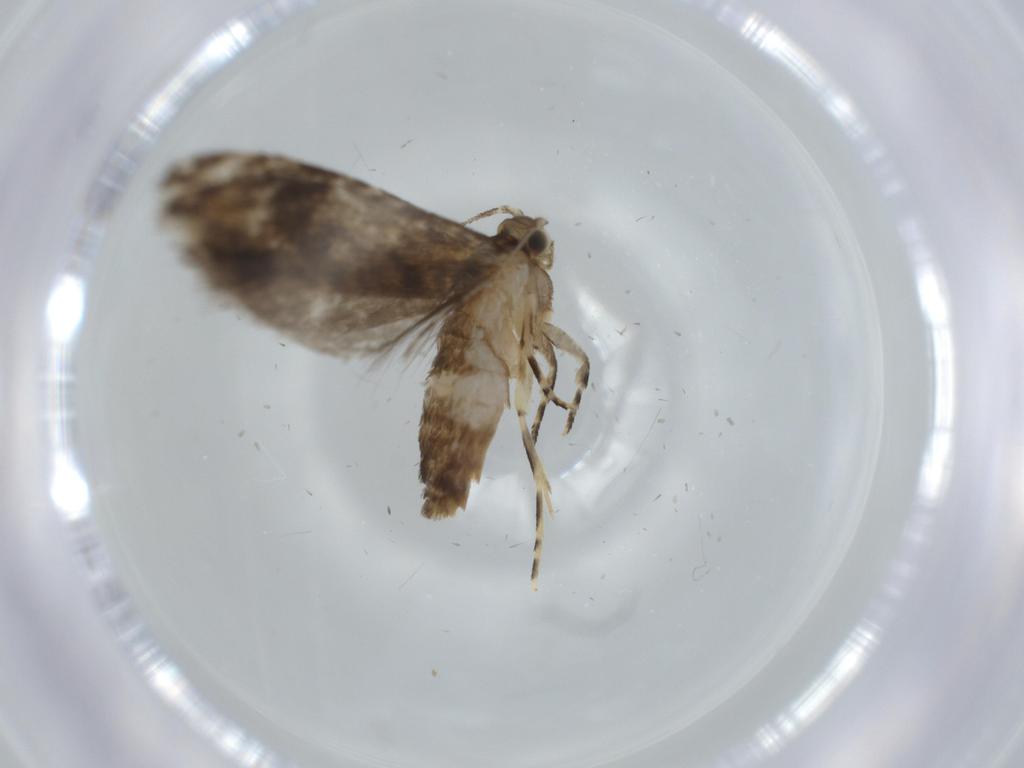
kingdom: Animalia
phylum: Arthropoda
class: Insecta
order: Lepidoptera
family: Tineidae
